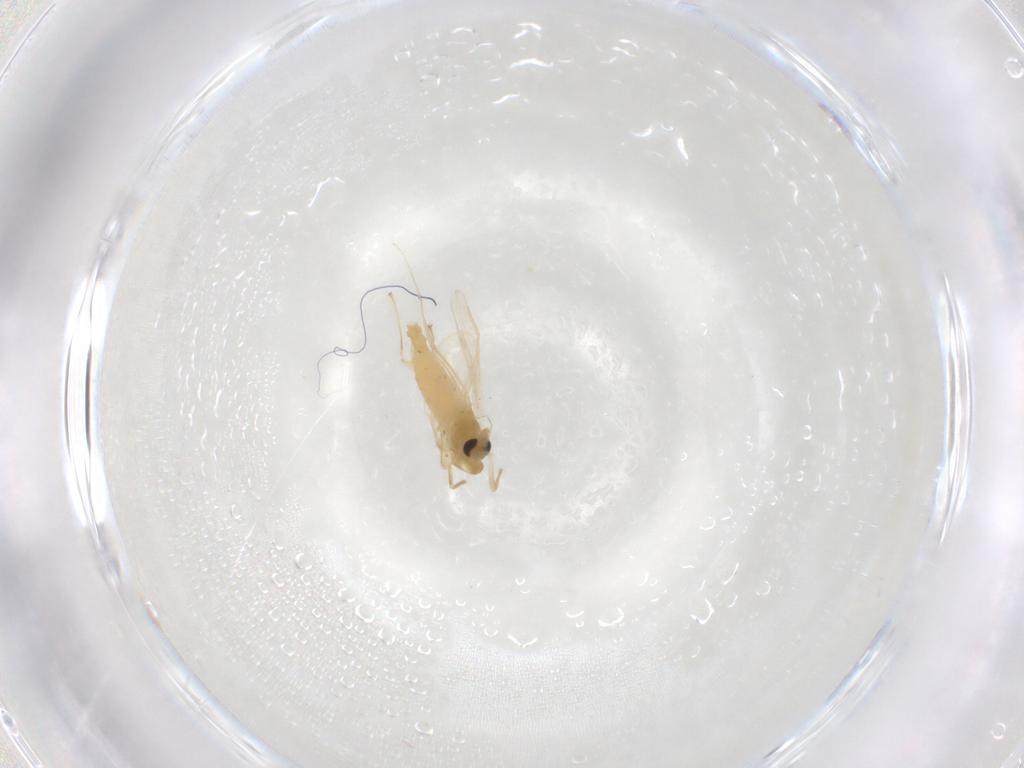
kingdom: Animalia
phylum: Arthropoda
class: Insecta
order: Diptera
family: Chironomidae
